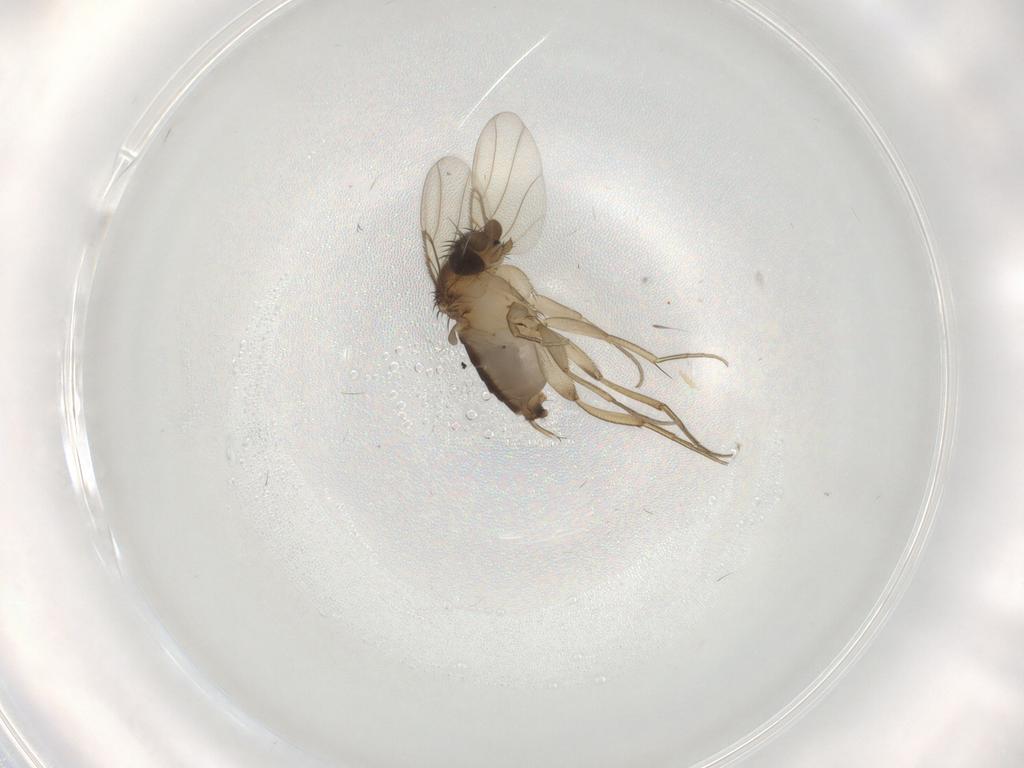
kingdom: Animalia
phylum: Arthropoda
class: Insecta
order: Diptera
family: Phoridae
